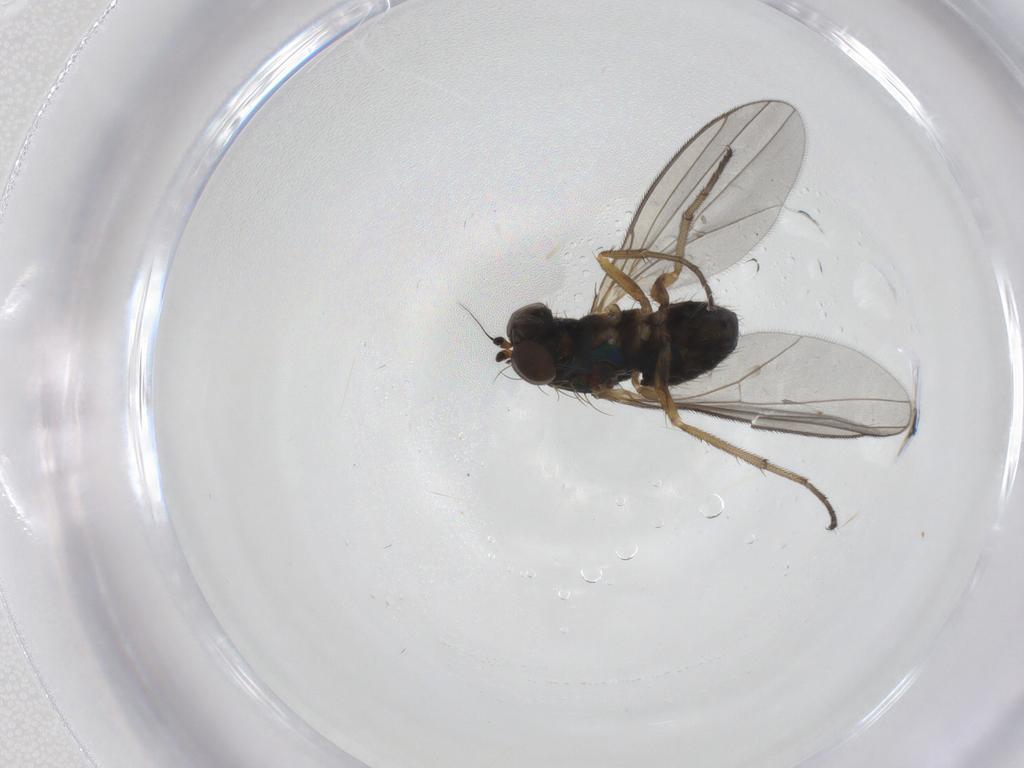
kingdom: Animalia
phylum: Arthropoda
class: Insecta
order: Diptera
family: Dolichopodidae
